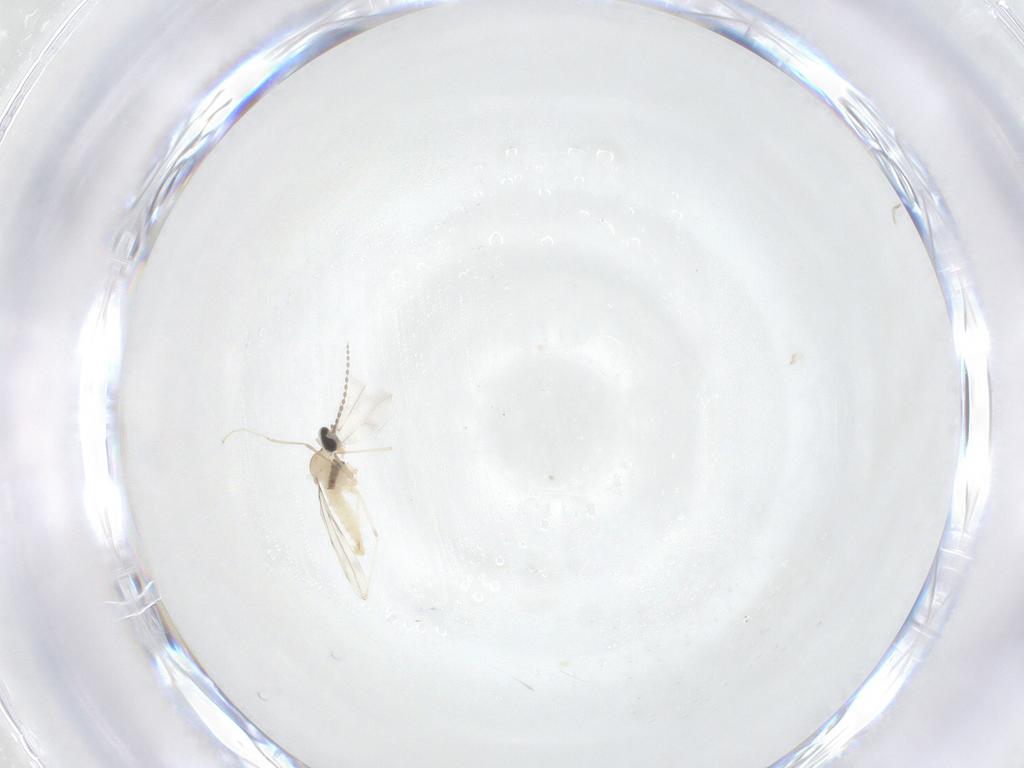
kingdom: Animalia
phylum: Arthropoda
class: Insecta
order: Diptera
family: Cecidomyiidae
